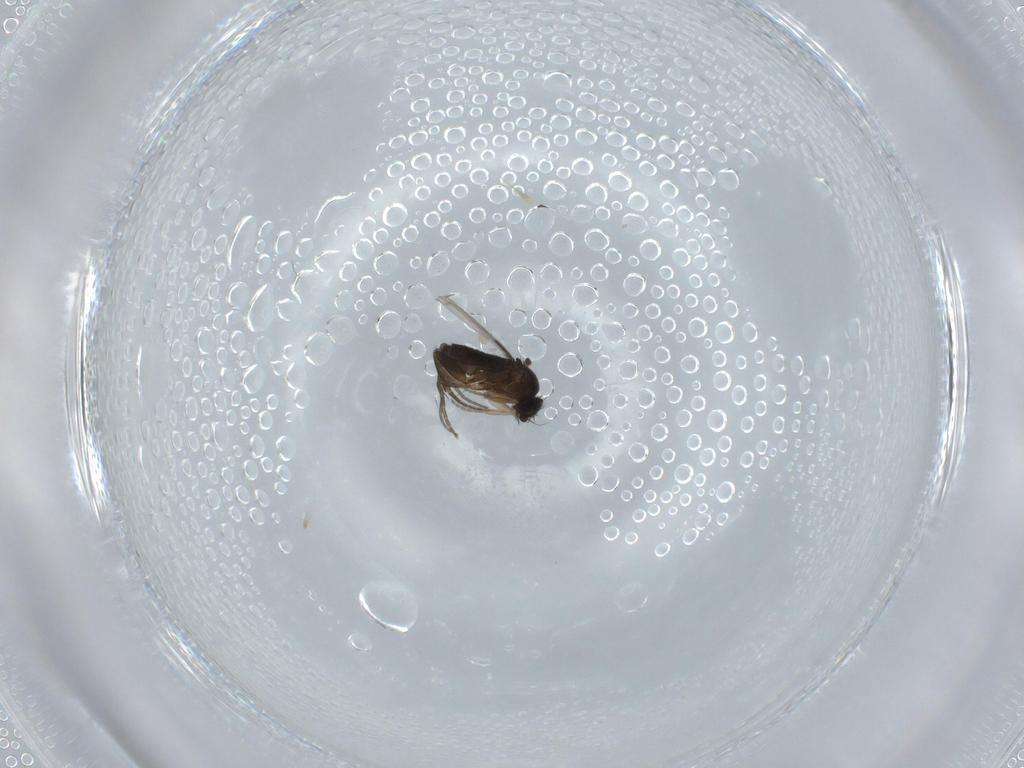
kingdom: Animalia
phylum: Arthropoda
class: Insecta
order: Diptera
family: Phoridae
